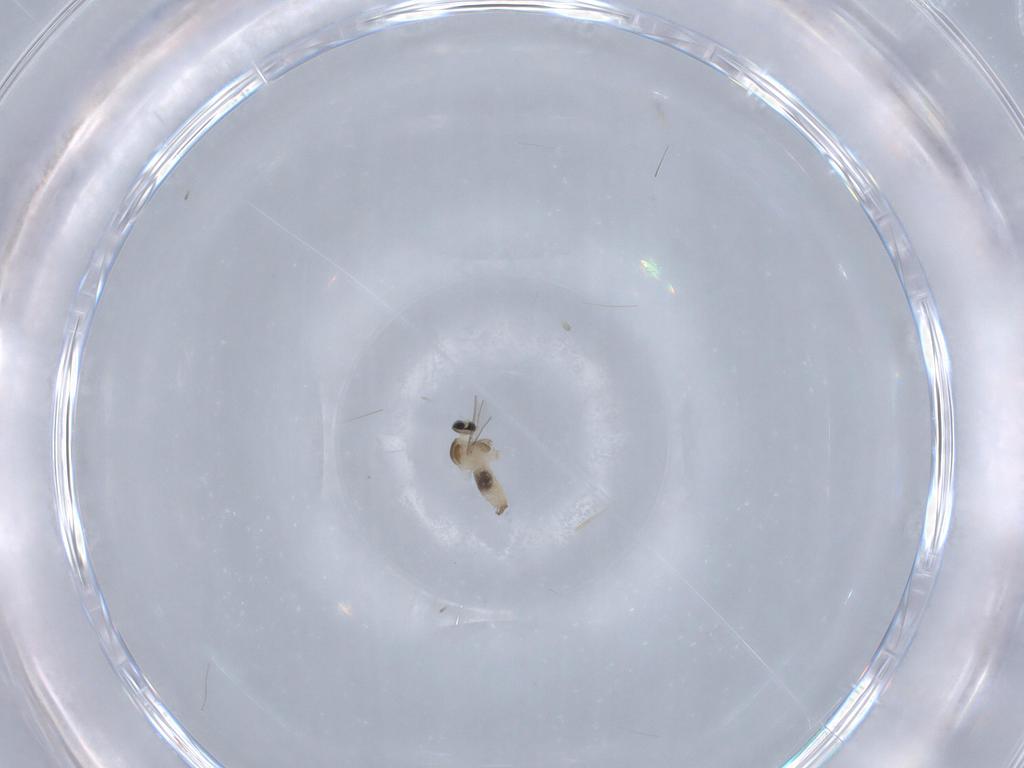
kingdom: Animalia
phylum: Arthropoda
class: Insecta
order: Diptera
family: Cecidomyiidae
